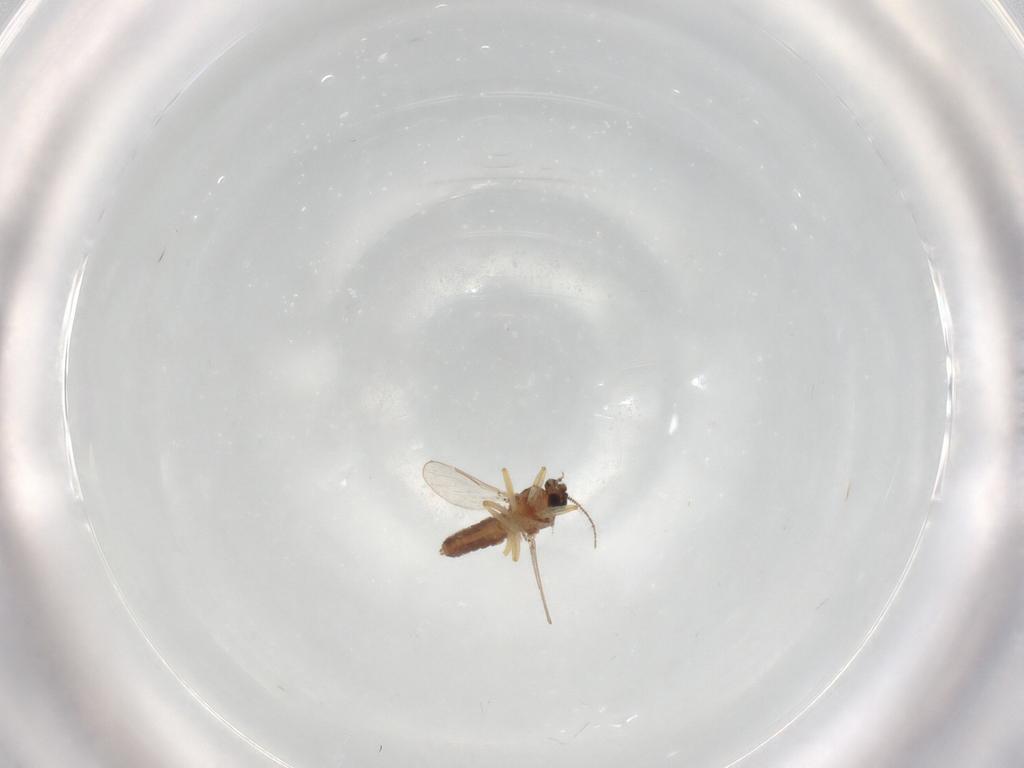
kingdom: Animalia
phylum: Arthropoda
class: Insecta
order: Diptera
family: Ceratopogonidae
